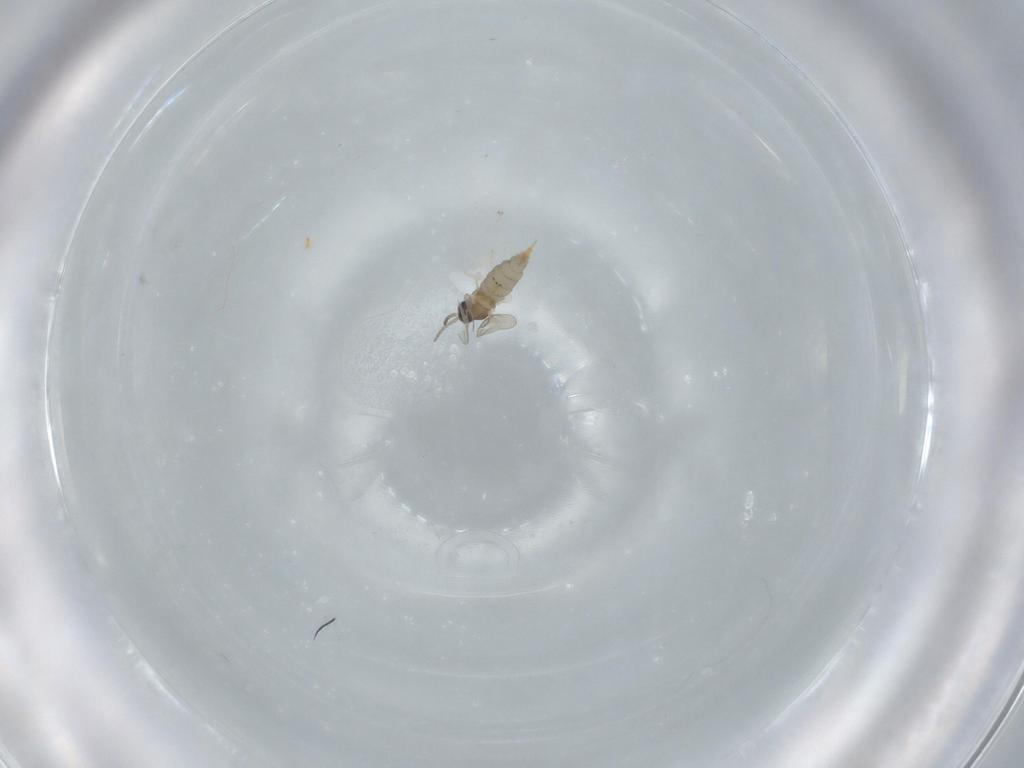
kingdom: Animalia
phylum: Arthropoda
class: Insecta
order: Diptera
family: Cecidomyiidae
